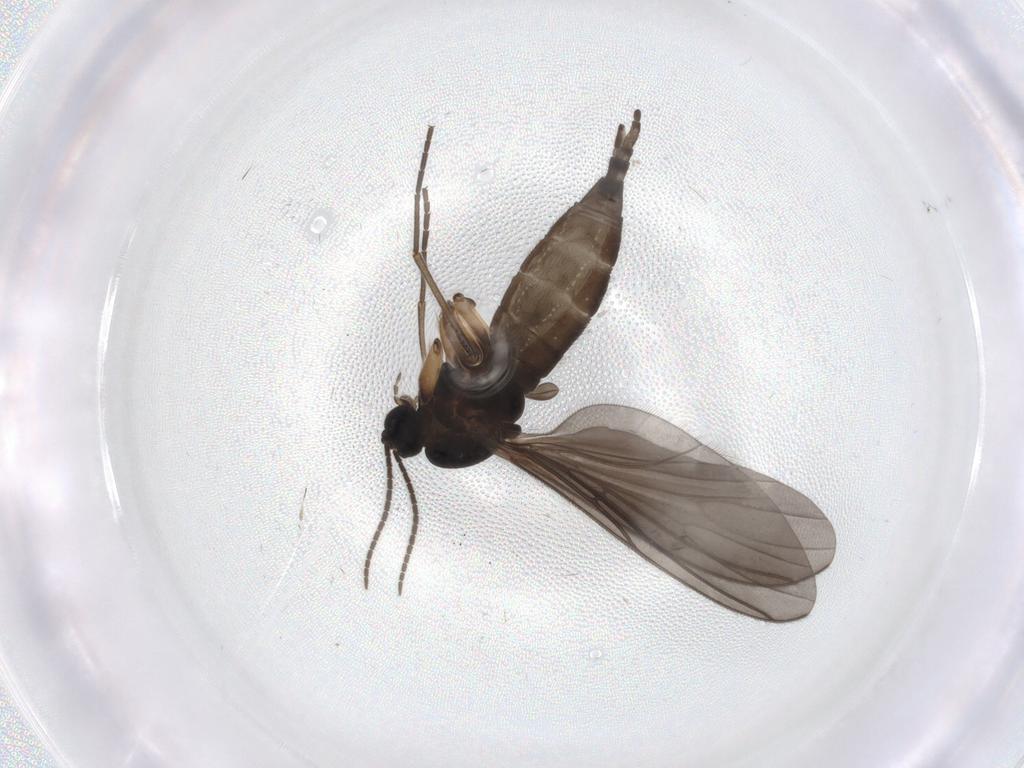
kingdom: Animalia
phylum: Arthropoda
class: Insecta
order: Diptera
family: Sciaridae
